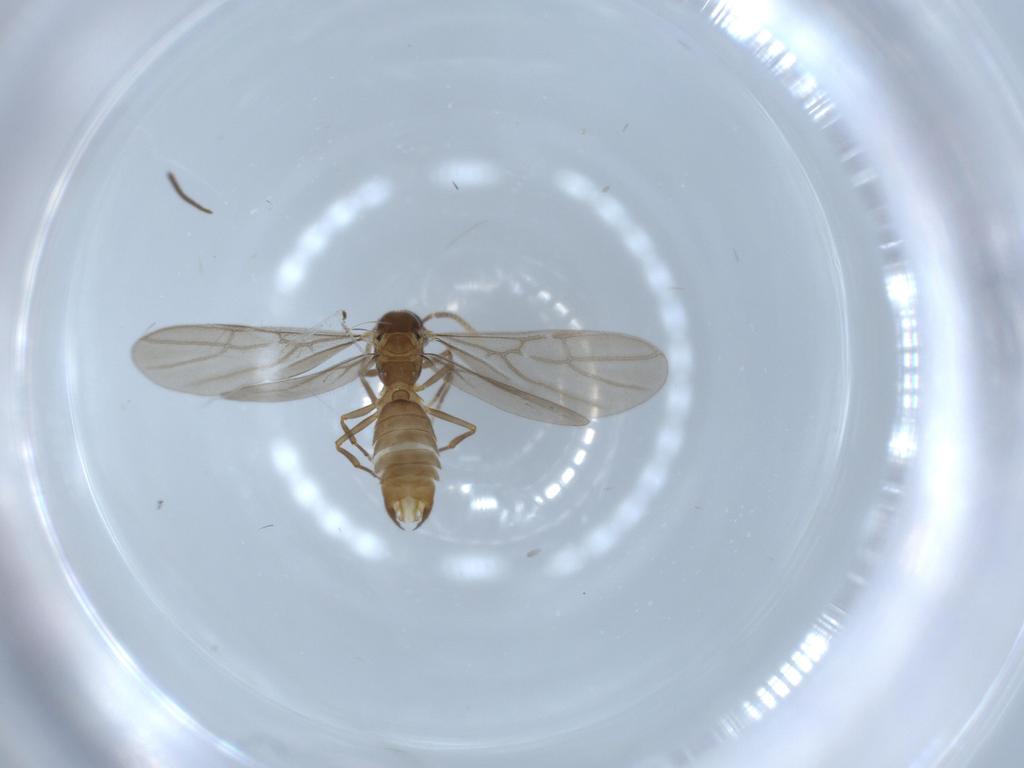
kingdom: Animalia
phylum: Arthropoda
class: Insecta
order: Hymenoptera
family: Formicidae
